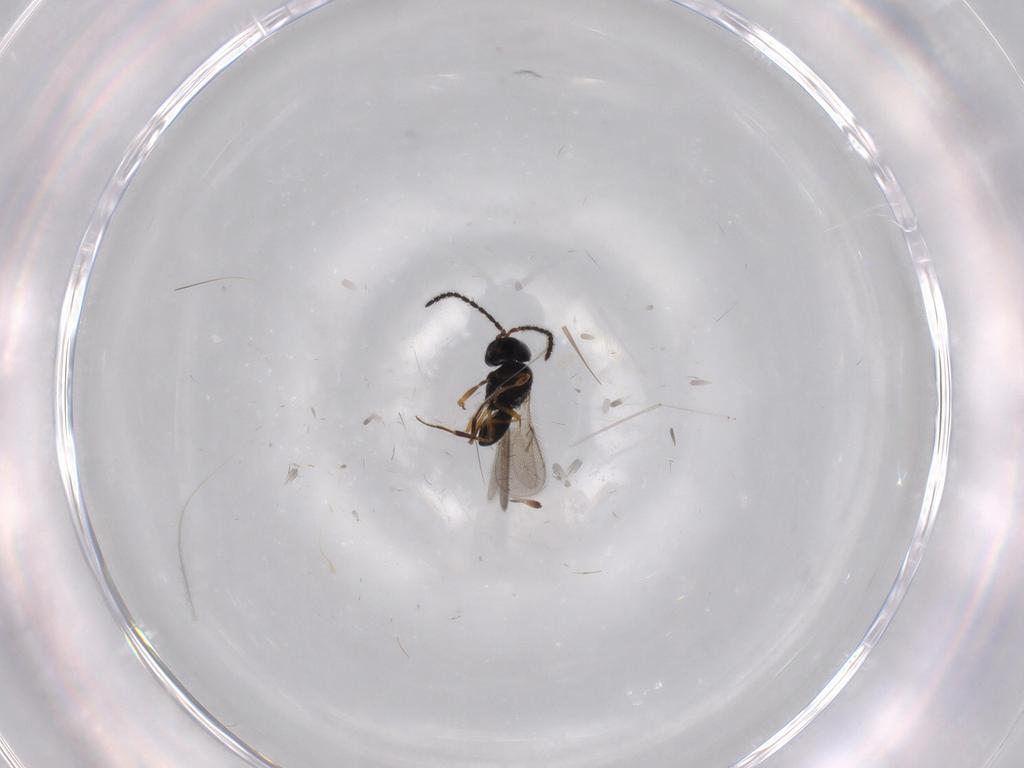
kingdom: Animalia
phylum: Arthropoda
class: Insecta
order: Hymenoptera
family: Scelionidae
